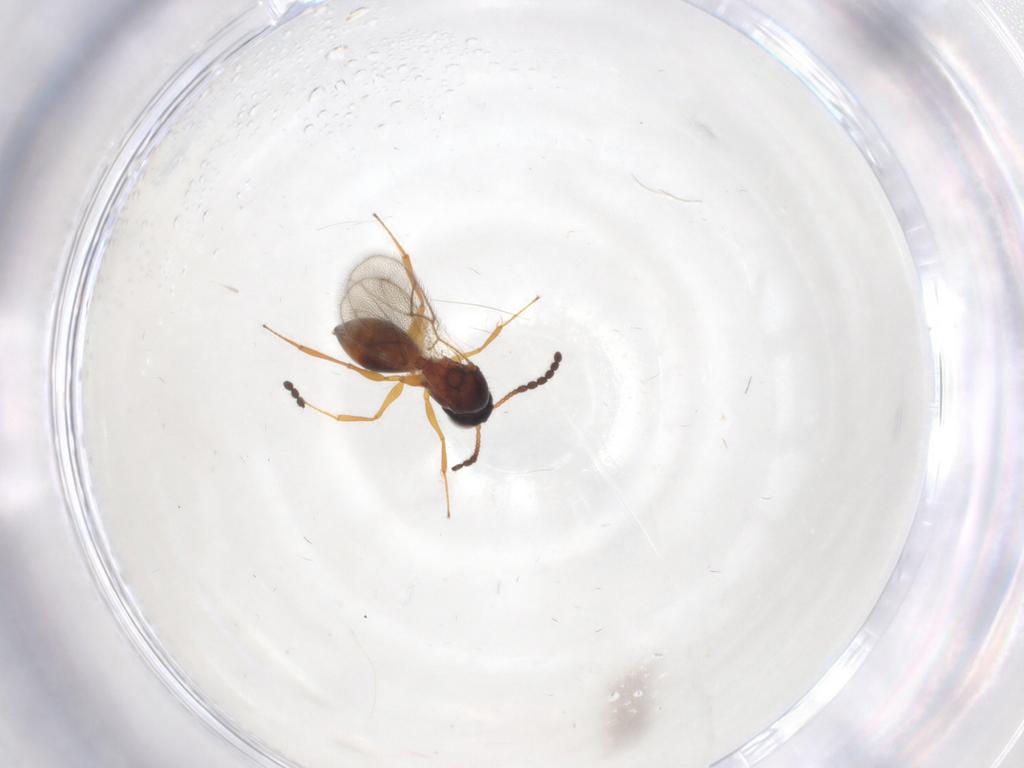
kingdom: Animalia
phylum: Arthropoda
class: Insecta
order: Hymenoptera
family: Figitidae
